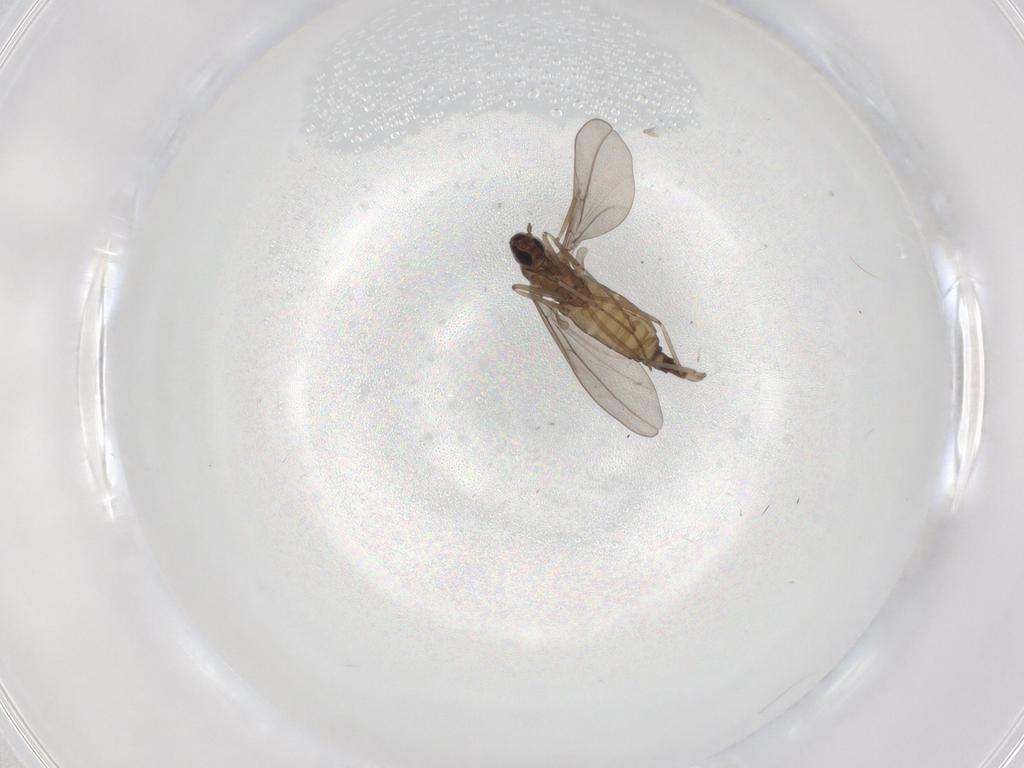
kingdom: Animalia
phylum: Arthropoda
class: Insecta
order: Diptera
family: Cecidomyiidae
